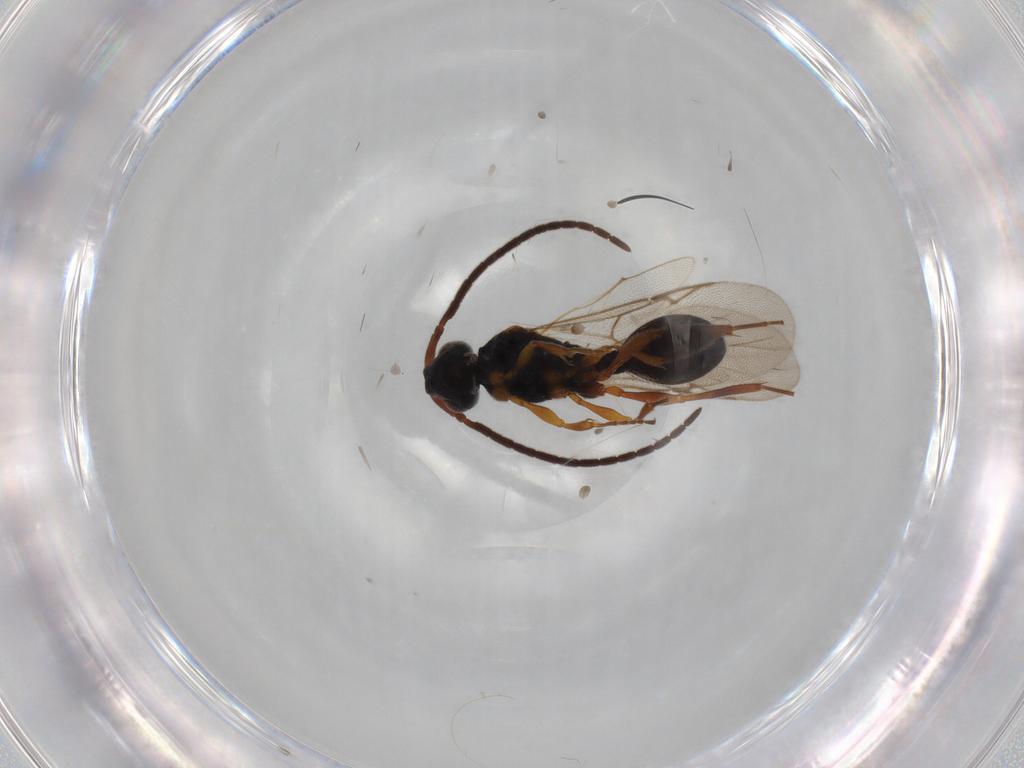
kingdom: Animalia
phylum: Arthropoda
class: Insecta
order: Hymenoptera
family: Diapriidae
